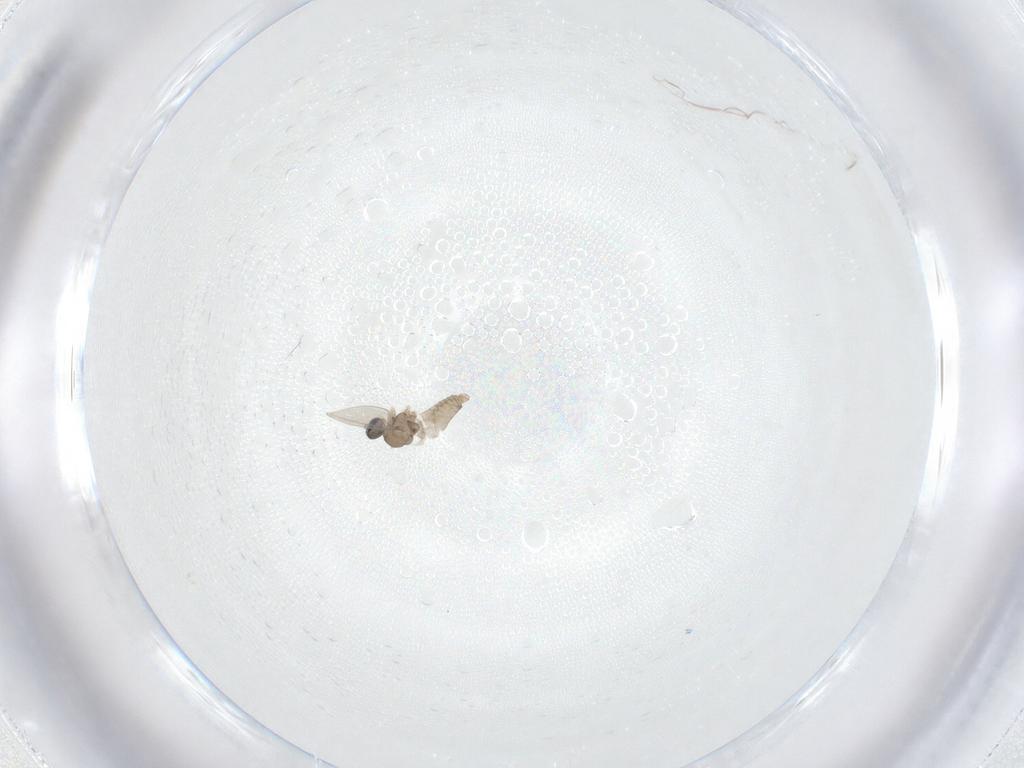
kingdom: Animalia
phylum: Arthropoda
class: Insecta
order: Diptera
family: Cecidomyiidae
